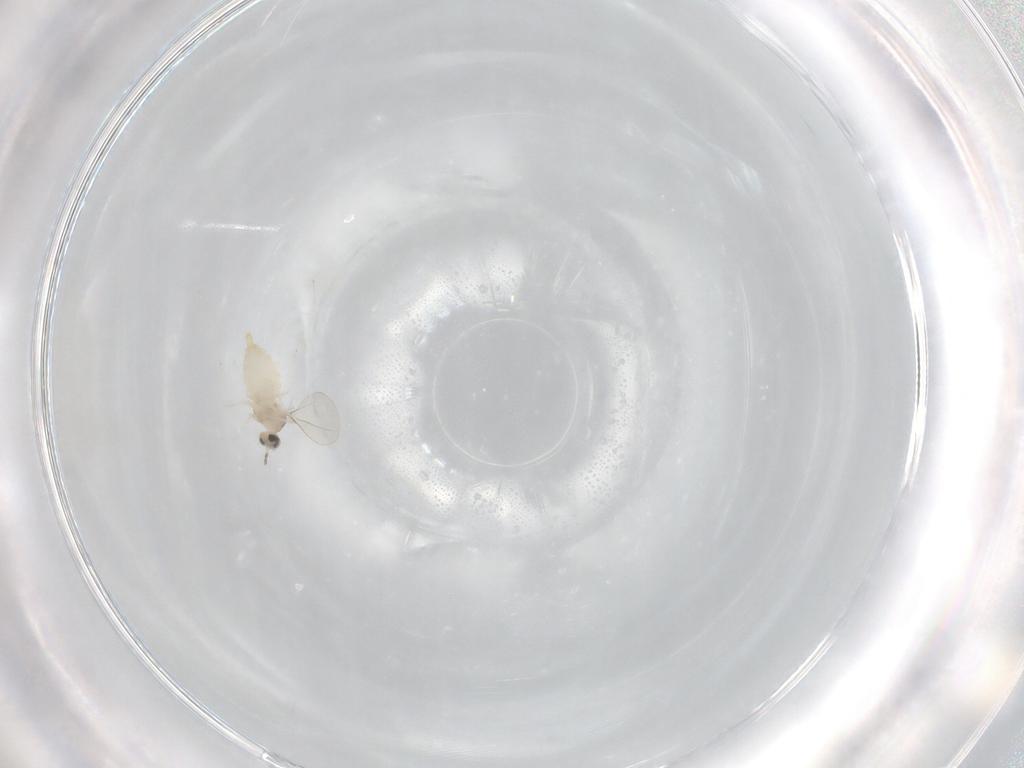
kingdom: Animalia
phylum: Arthropoda
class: Insecta
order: Diptera
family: Cecidomyiidae
